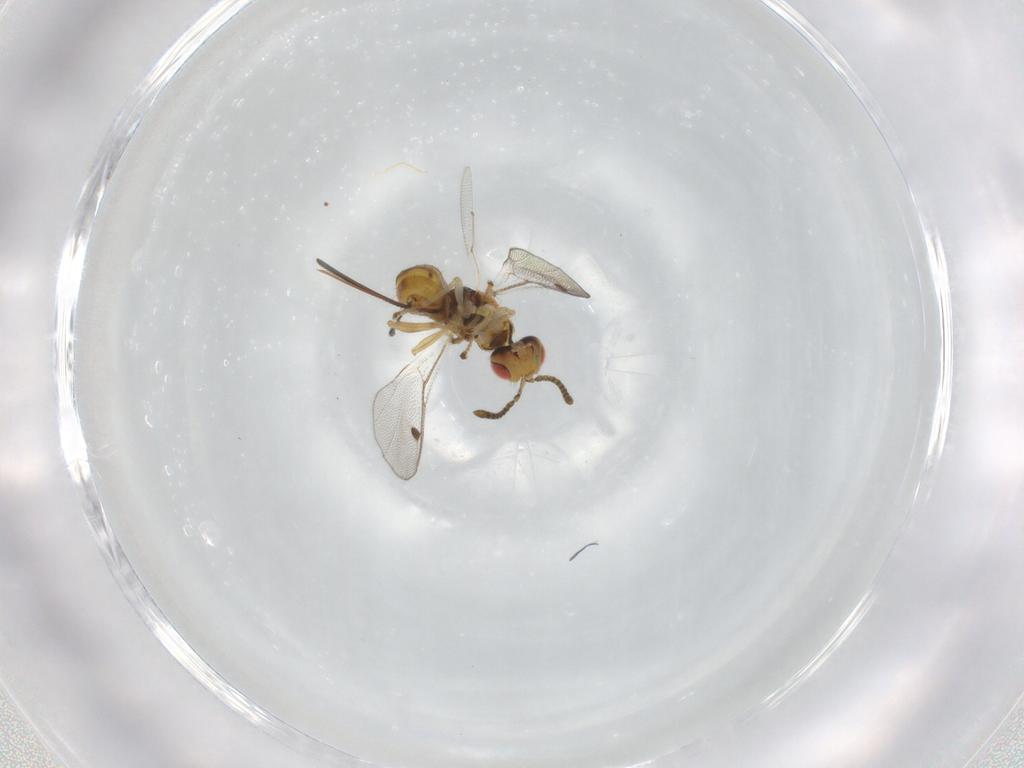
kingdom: Animalia
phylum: Arthropoda
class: Insecta
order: Hymenoptera
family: Megastigmidae
